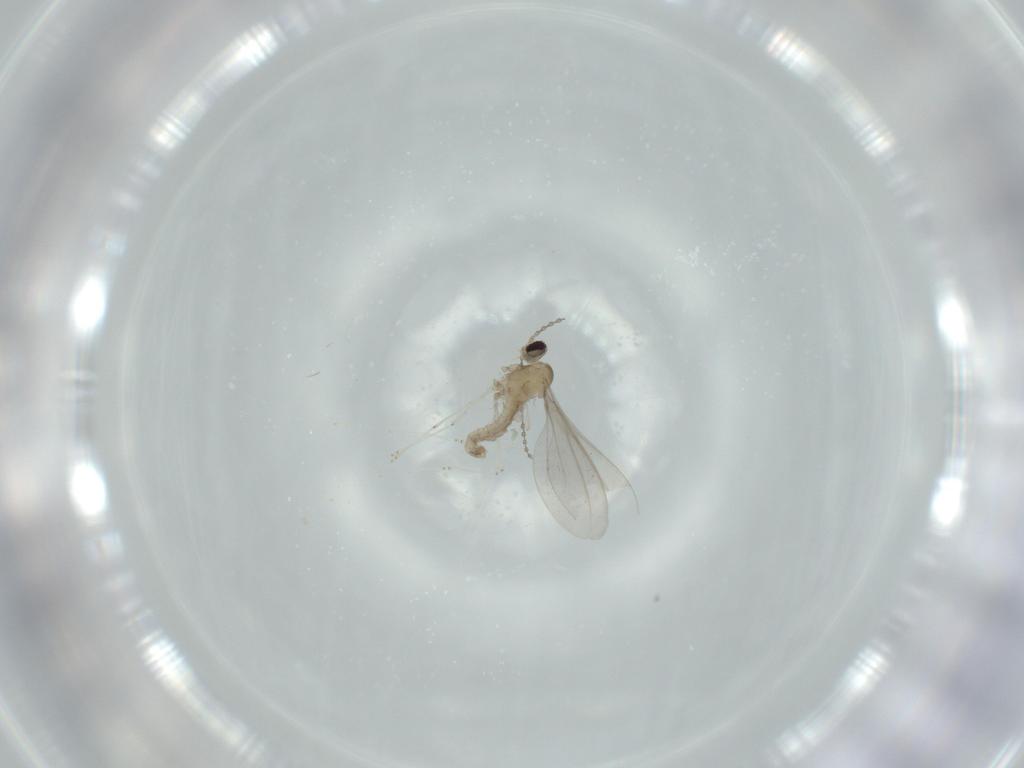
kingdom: Animalia
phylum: Arthropoda
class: Insecta
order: Diptera
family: Cecidomyiidae
